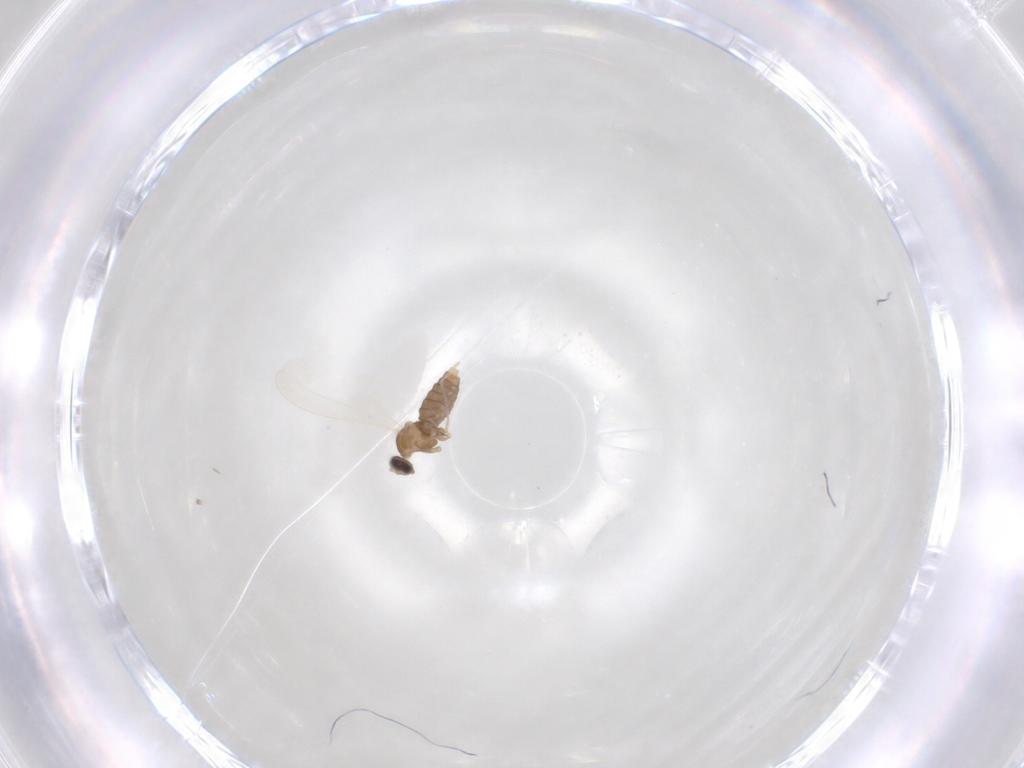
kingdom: Animalia
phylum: Arthropoda
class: Insecta
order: Diptera
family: Cecidomyiidae
